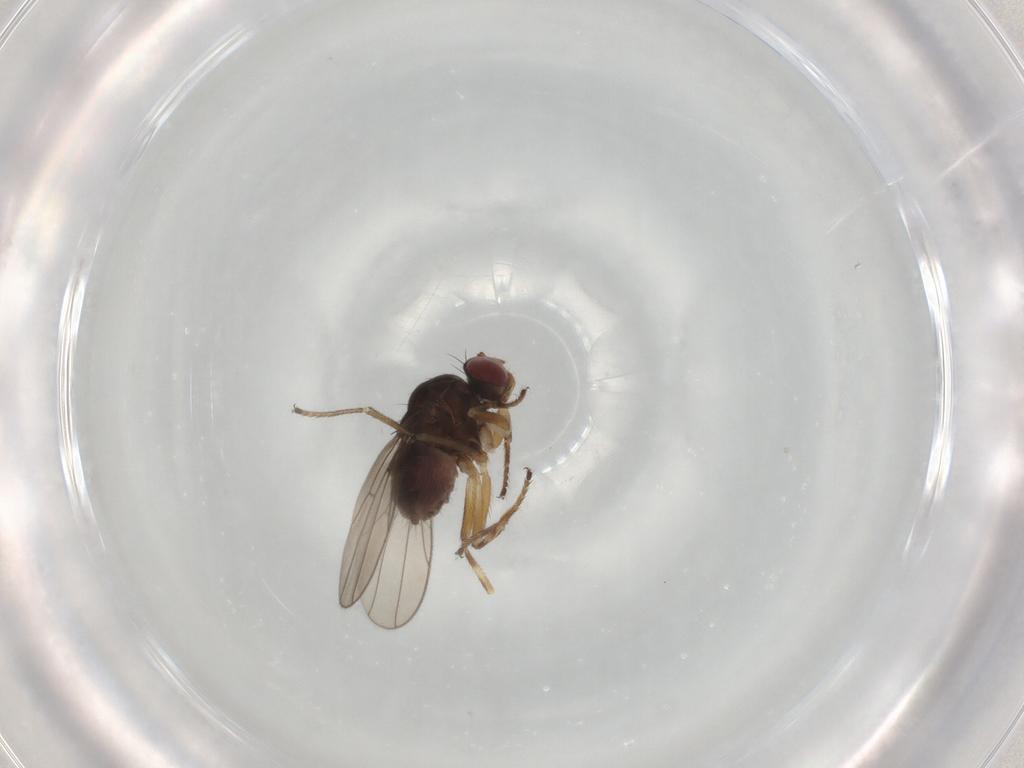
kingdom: Animalia
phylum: Arthropoda
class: Insecta
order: Diptera
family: Ephydridae
